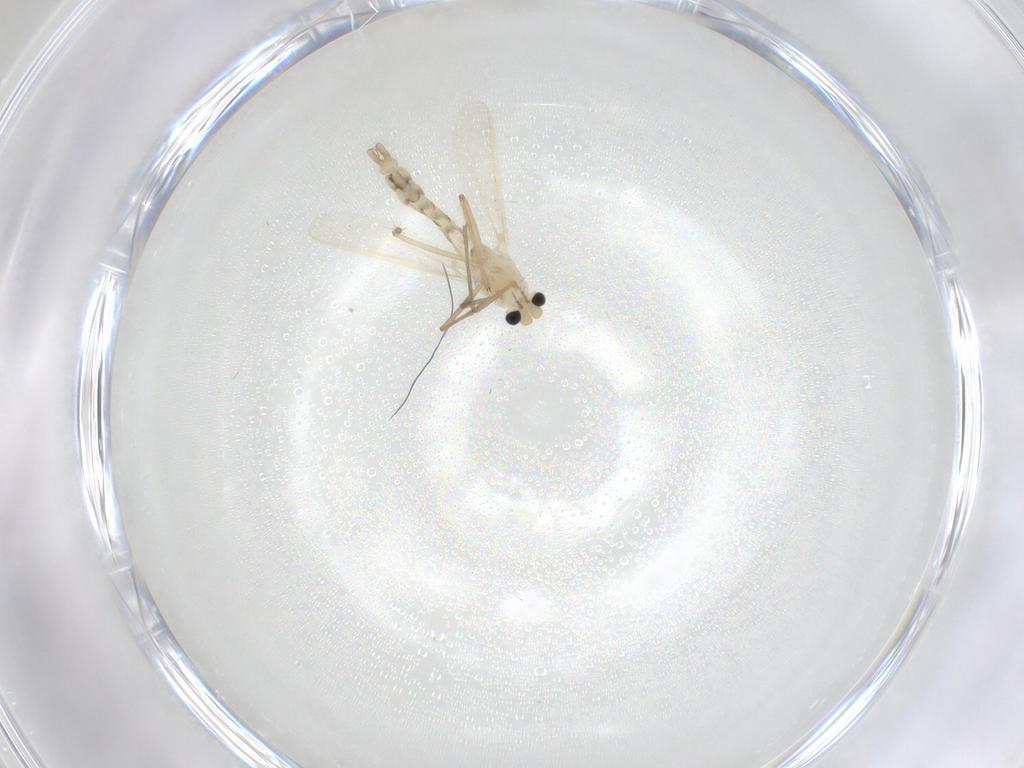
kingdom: Animalia
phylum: Arthropoda
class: Insecta
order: Diptera
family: Chironomidae
